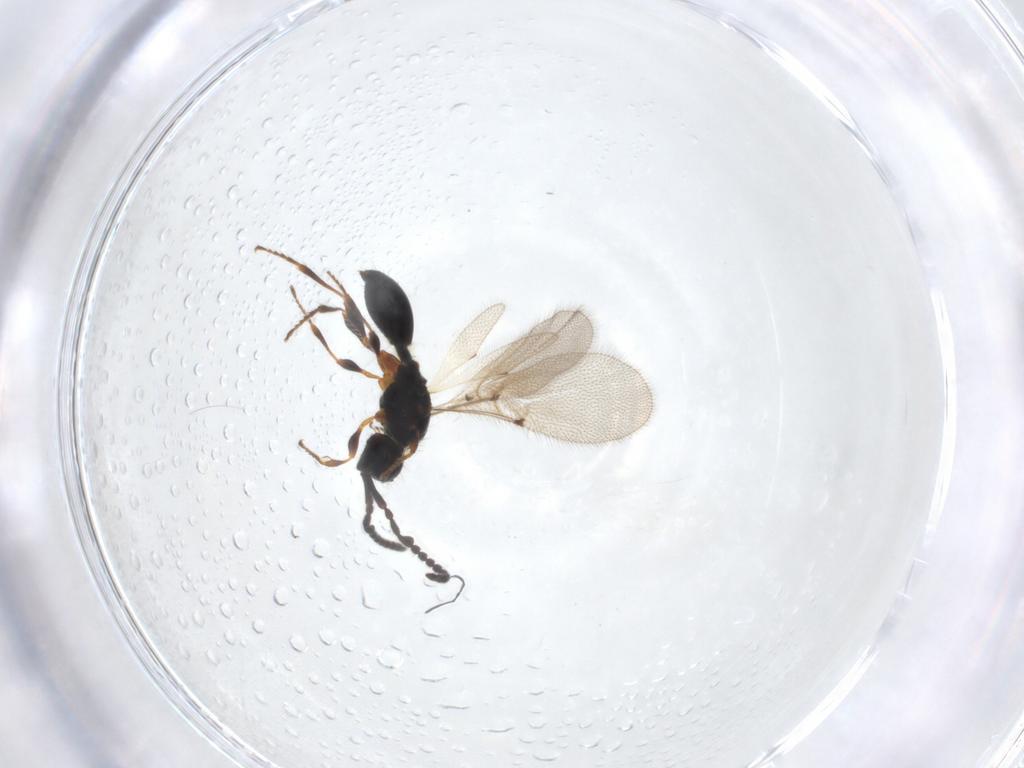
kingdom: Animalia
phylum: Arthropoda
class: Insecta
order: Hymenoptera
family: Diapriidae
